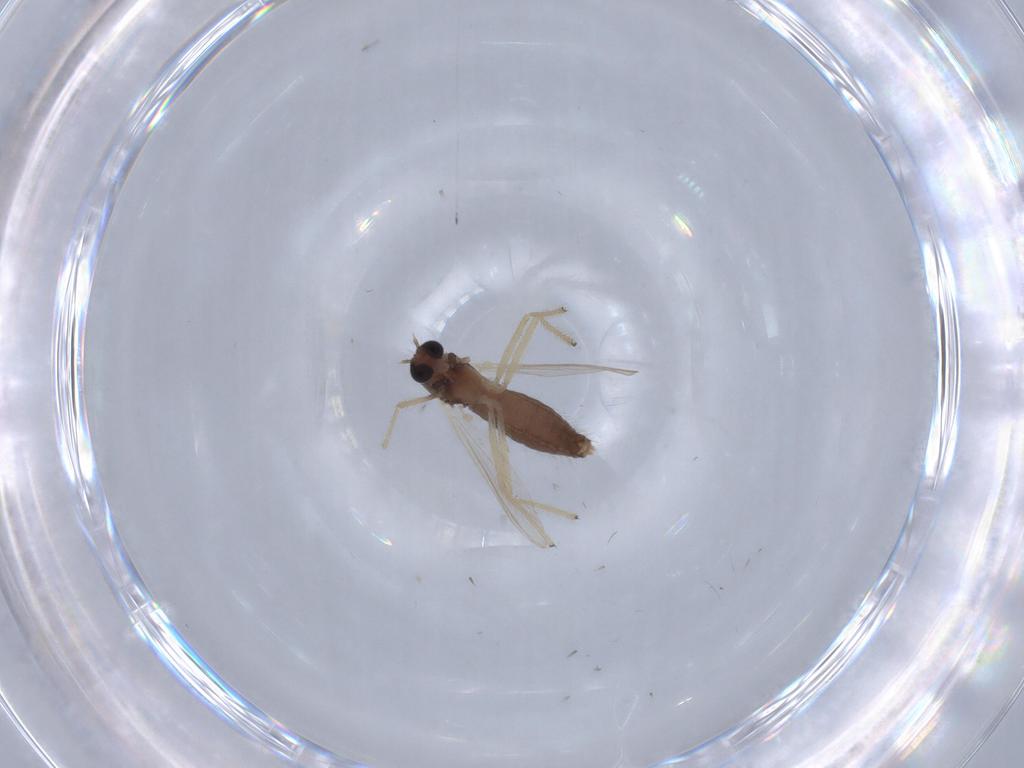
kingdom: Animalia
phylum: Arthropoda
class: Insecta
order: Diptera
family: Chironomidae
